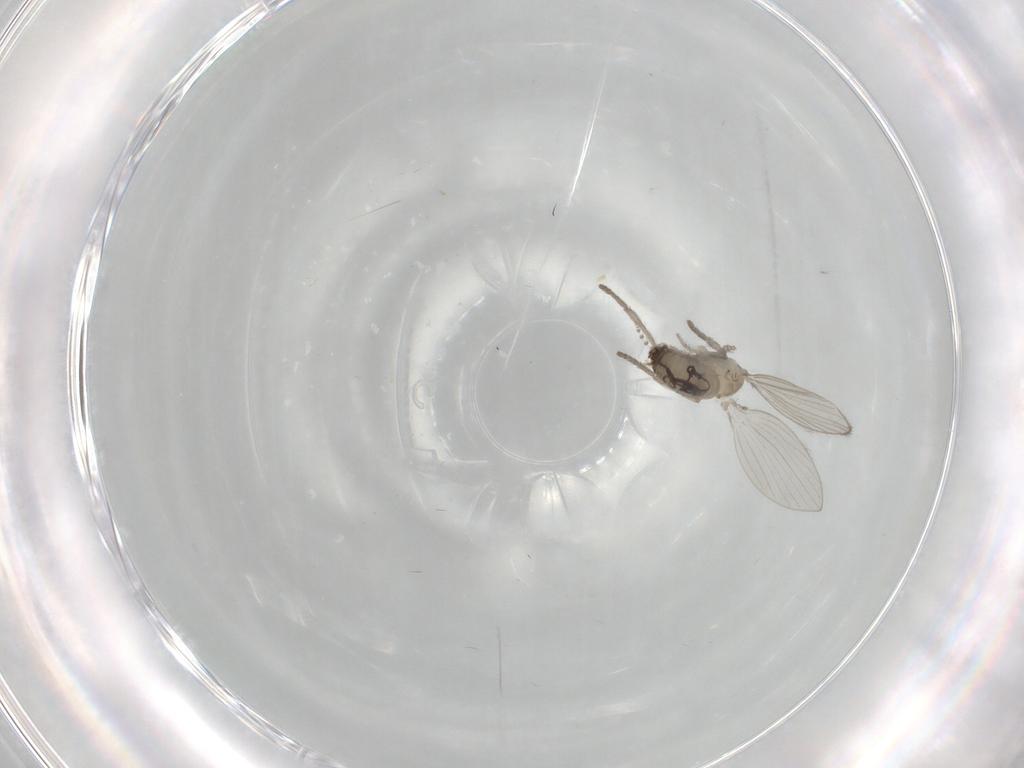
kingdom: Animalia
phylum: Arthropoda
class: Insecta
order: Diptera
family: Psychodidae
